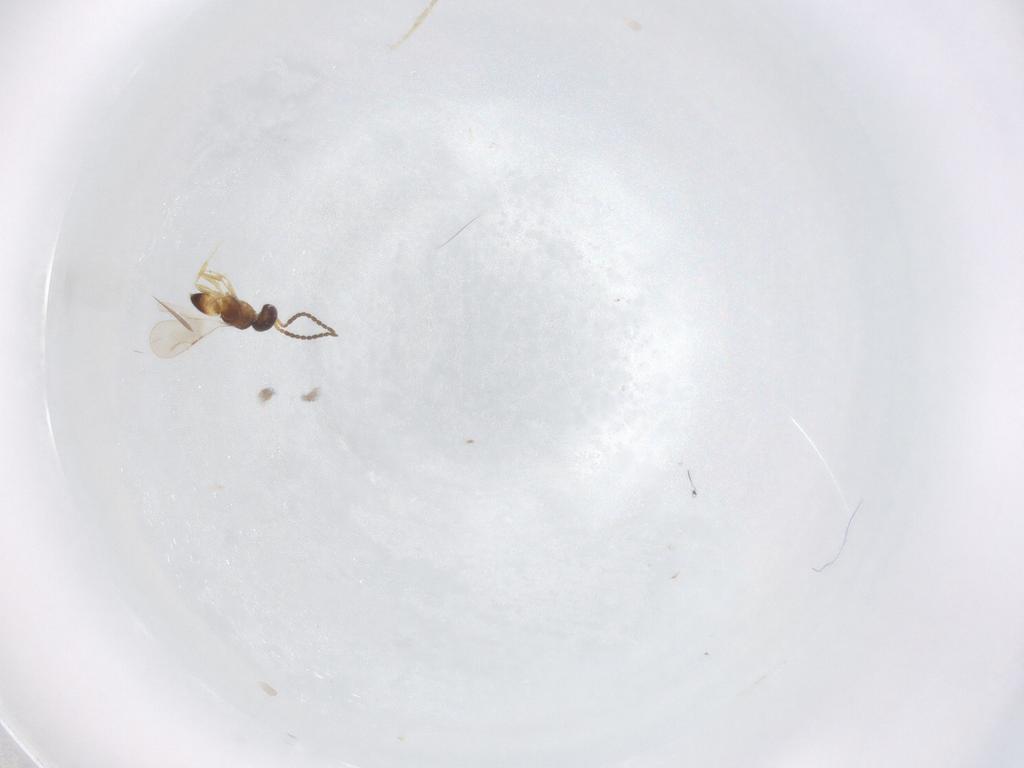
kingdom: Animalia
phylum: Arthropoda
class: Insecta
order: Hymenoptera
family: Ceraphronidae
